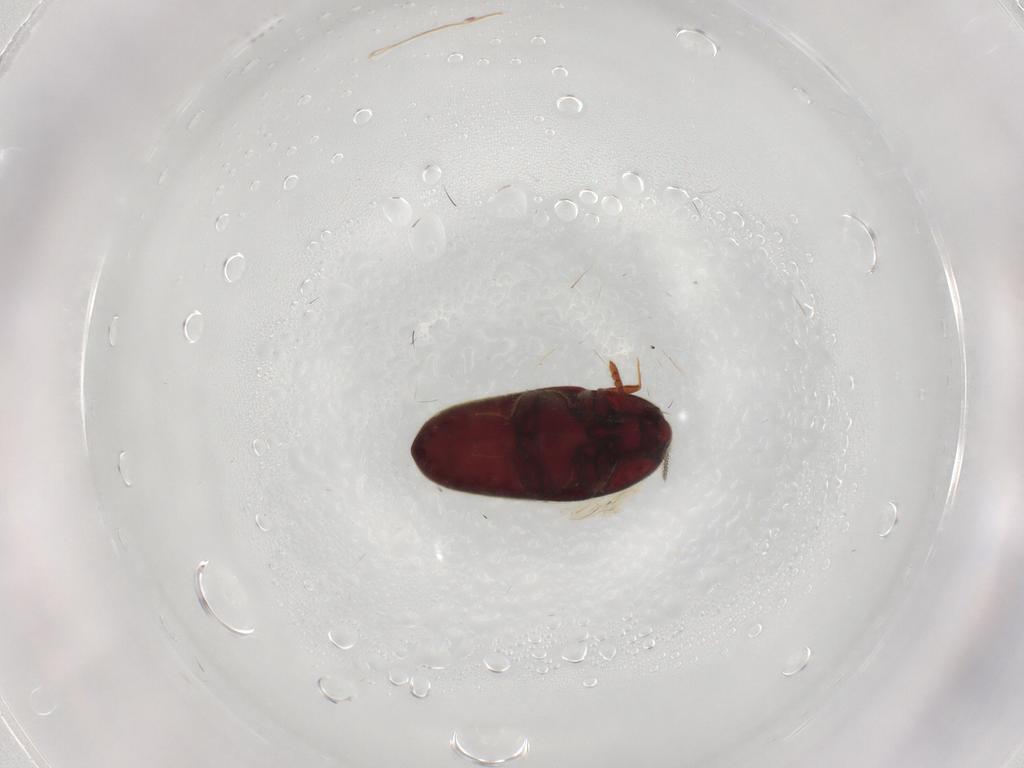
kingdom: Animalia
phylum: Arthropoda
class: Insecta
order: Coleoptera
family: Throscidae
